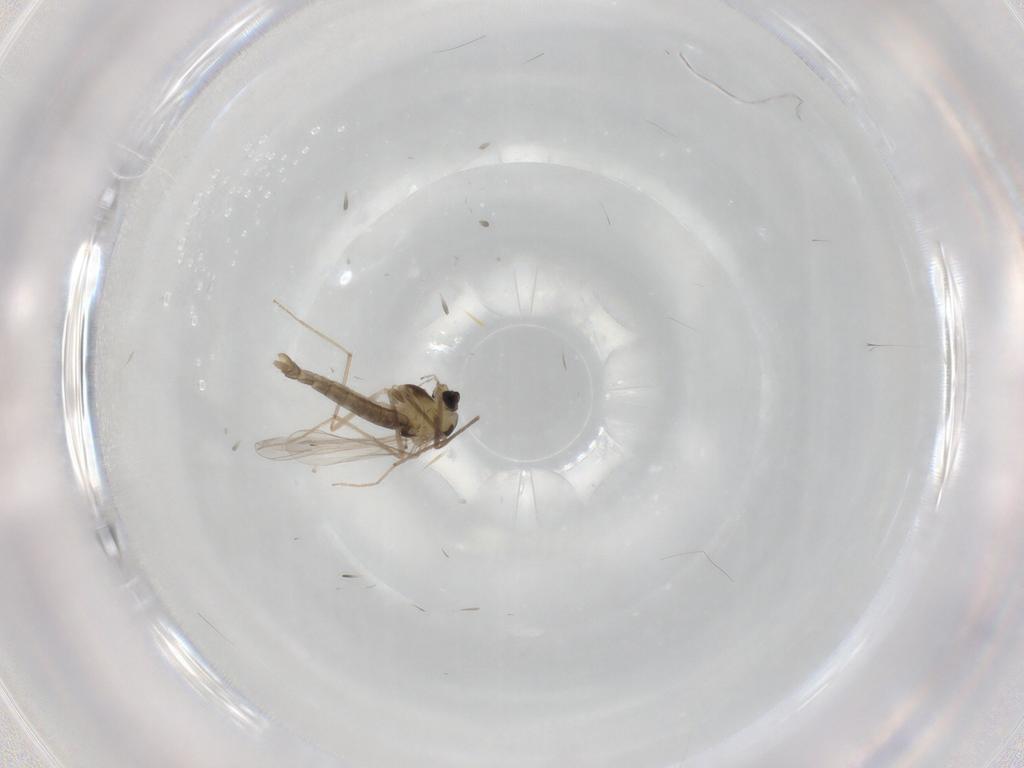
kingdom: Animalia
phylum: Arthropoda
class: Insecta
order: Diptera
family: Chironomidae
